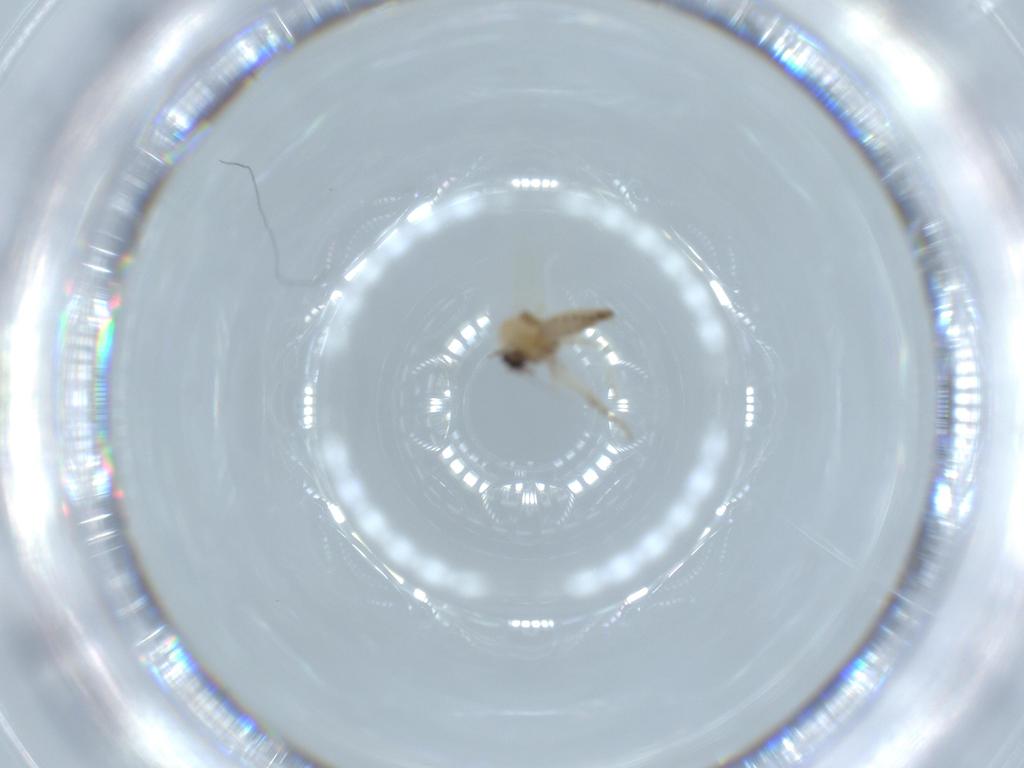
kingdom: Animalia
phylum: Arthropoda
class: Insecta
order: Diptera
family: Ceratopogonidae
